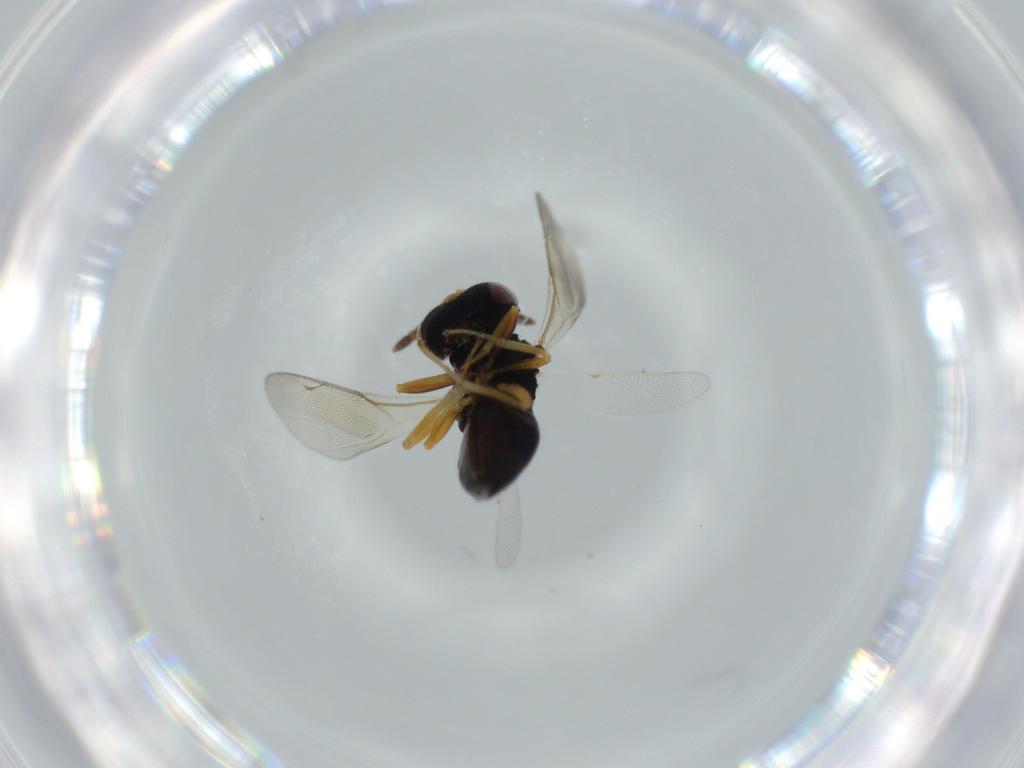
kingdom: Animalia
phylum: Arthropoda
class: Insecta
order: Hymenoptera
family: Pteromalidae
